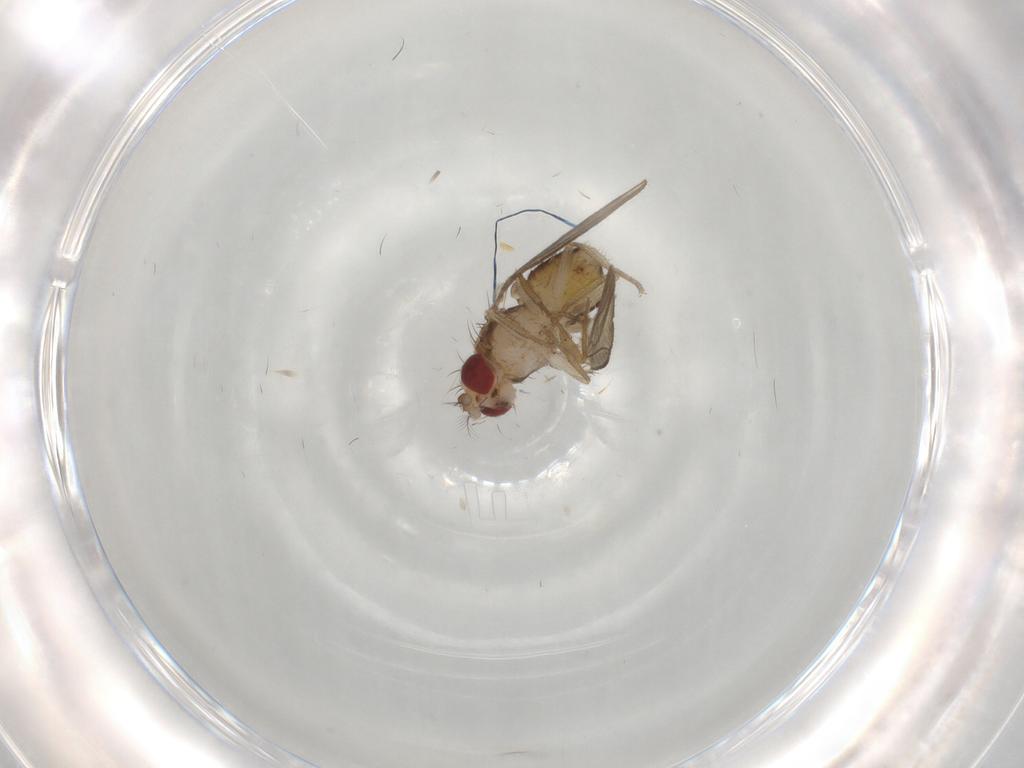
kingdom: Animalia
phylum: Arthropoda
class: Insecta
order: Diptera
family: Drosophilidae
